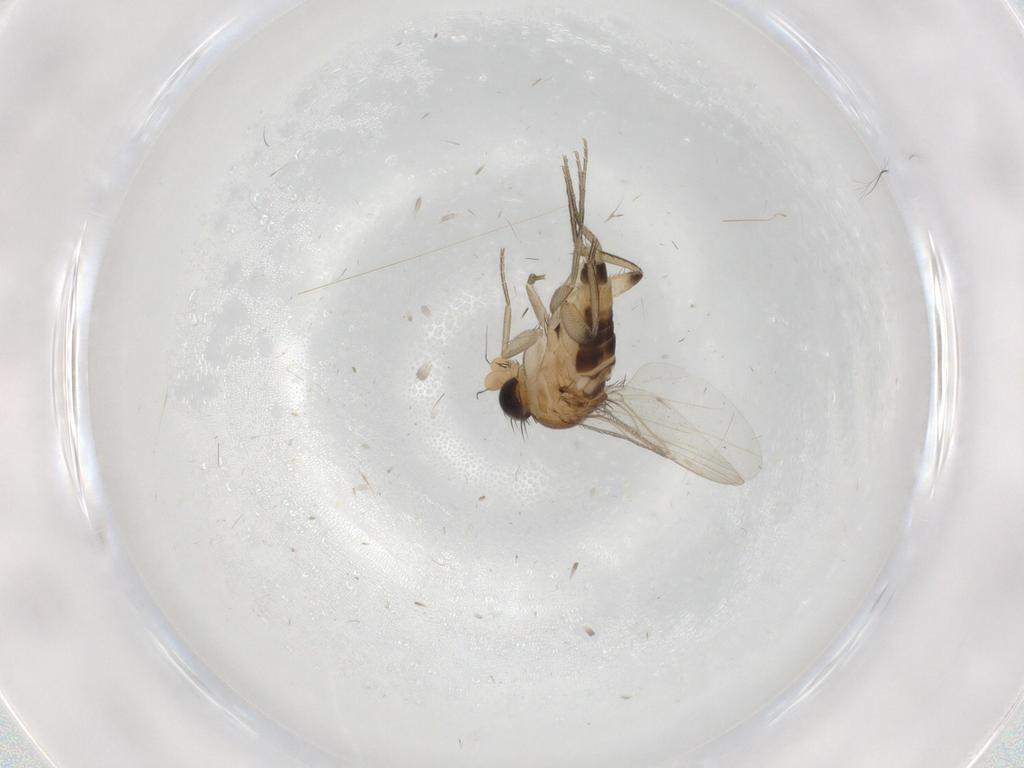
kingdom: Animalia
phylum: Arthropoda
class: Insecta
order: Diptera
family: Phoridae
